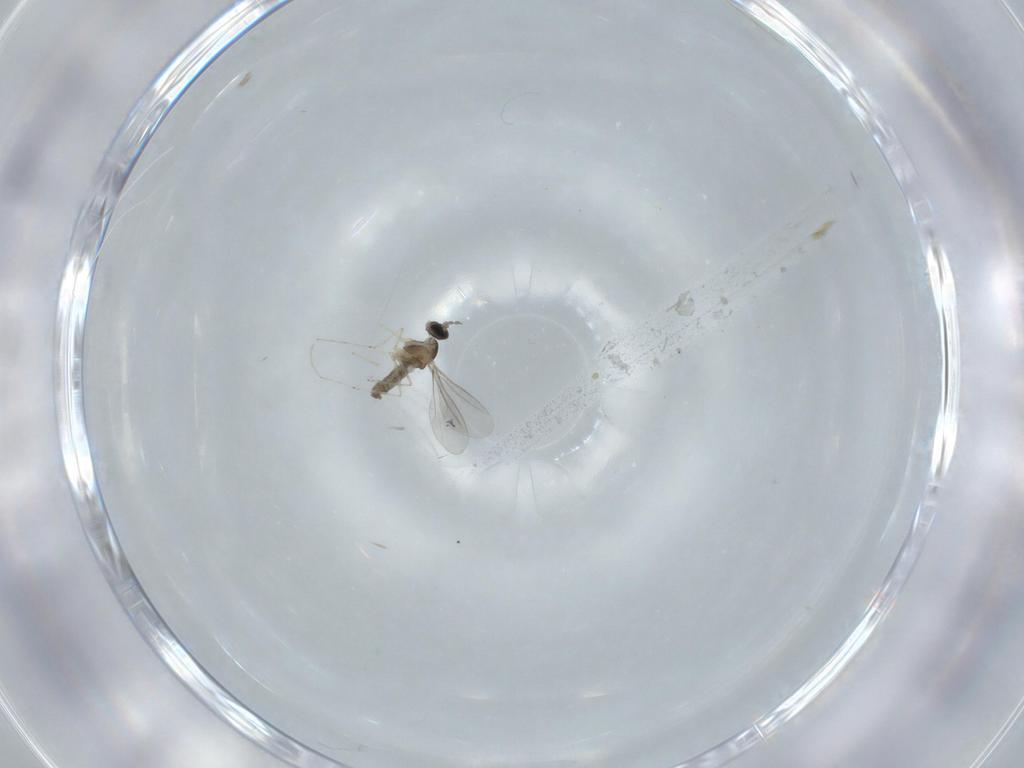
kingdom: Animalia
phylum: Arthropoda
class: Insecta
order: Diptera
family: Cecidomyiidae
